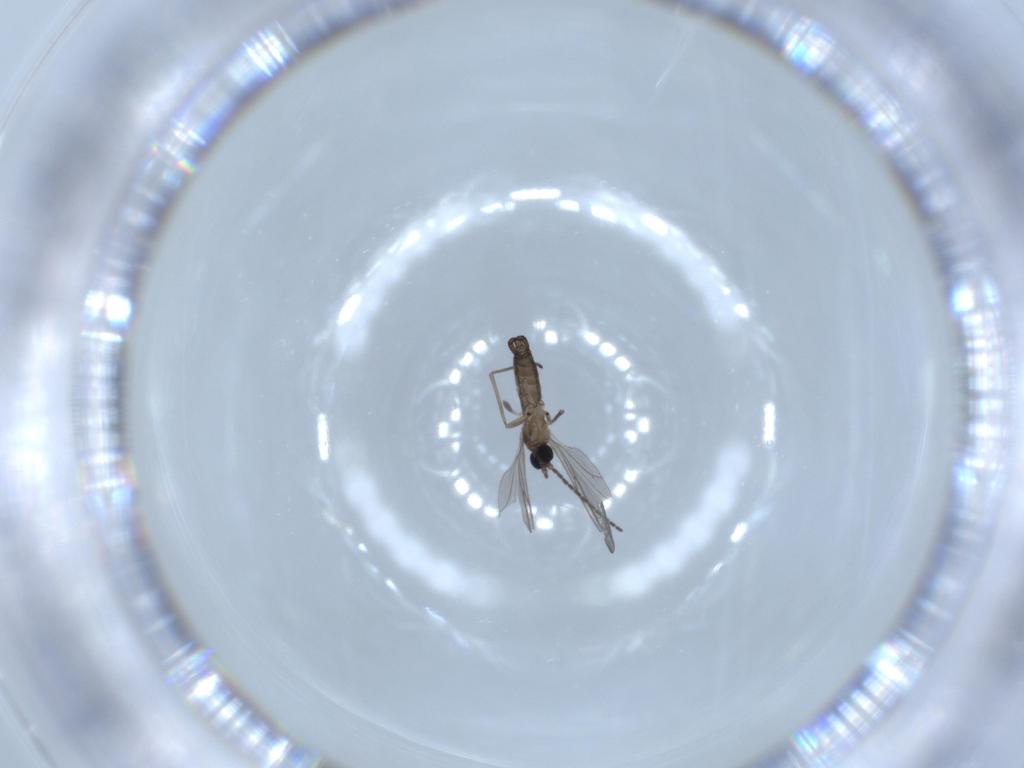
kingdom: Animalia
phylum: Arthropoda
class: Insecta
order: Diptera
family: Sciaridae
